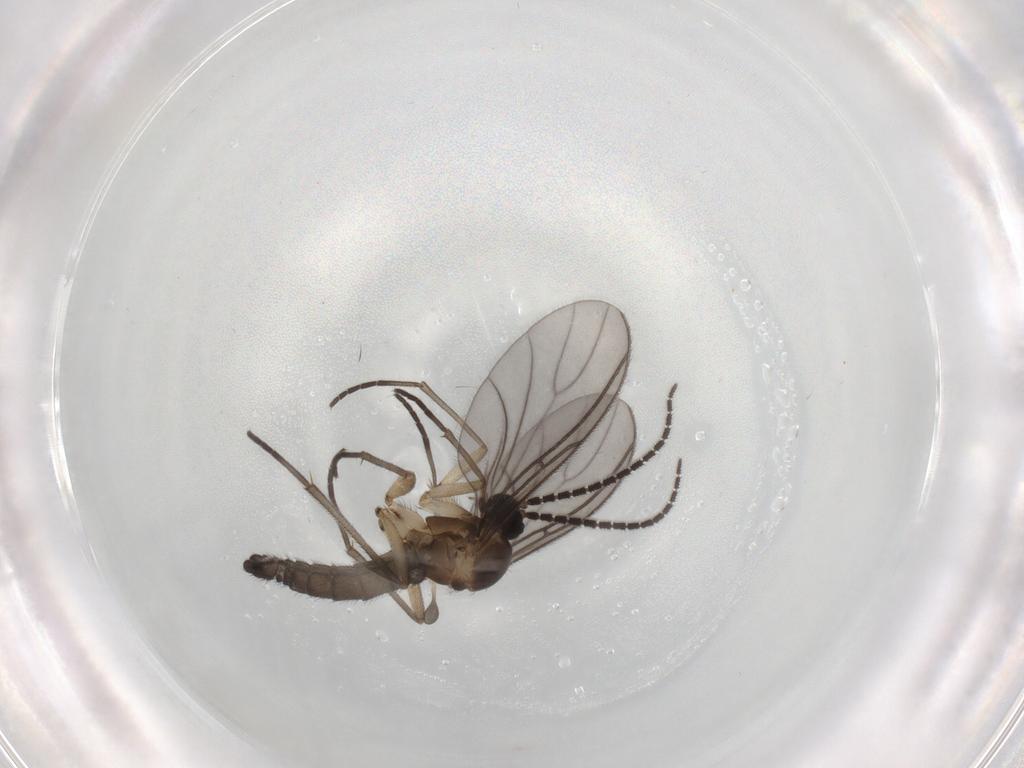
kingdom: Animalia
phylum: Arthropoda
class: Insecta
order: Diptera
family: Sciaridae
